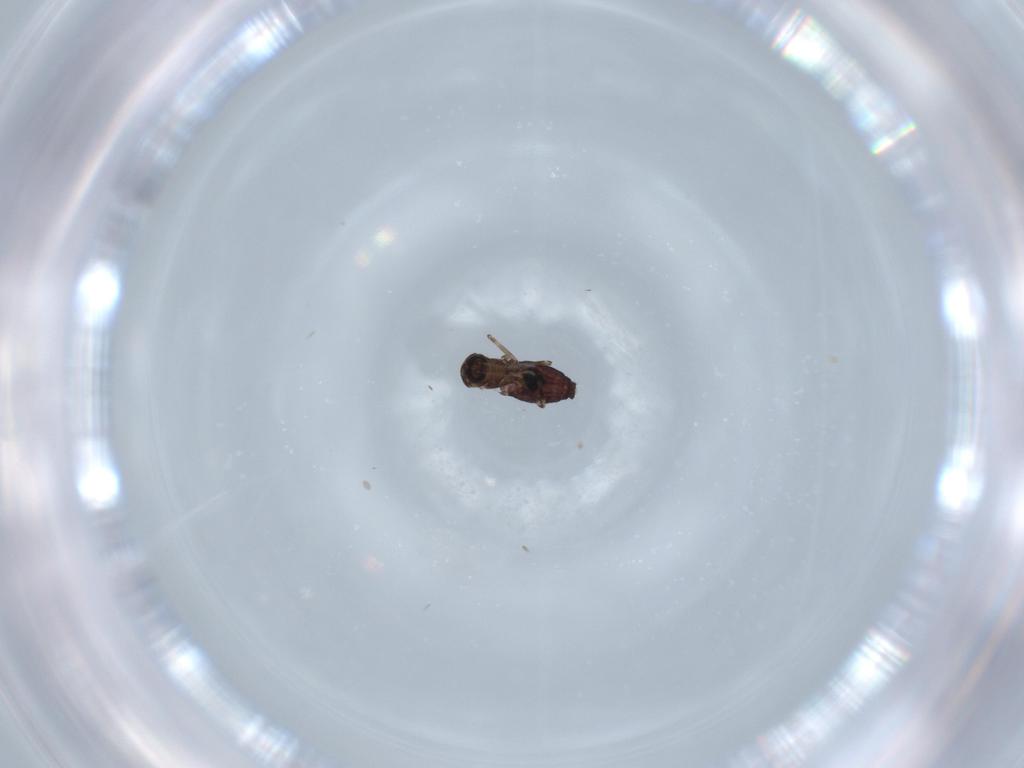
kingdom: Animalia
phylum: Arthropoda
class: Insecta
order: Diptera
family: Ceratopogonidae
